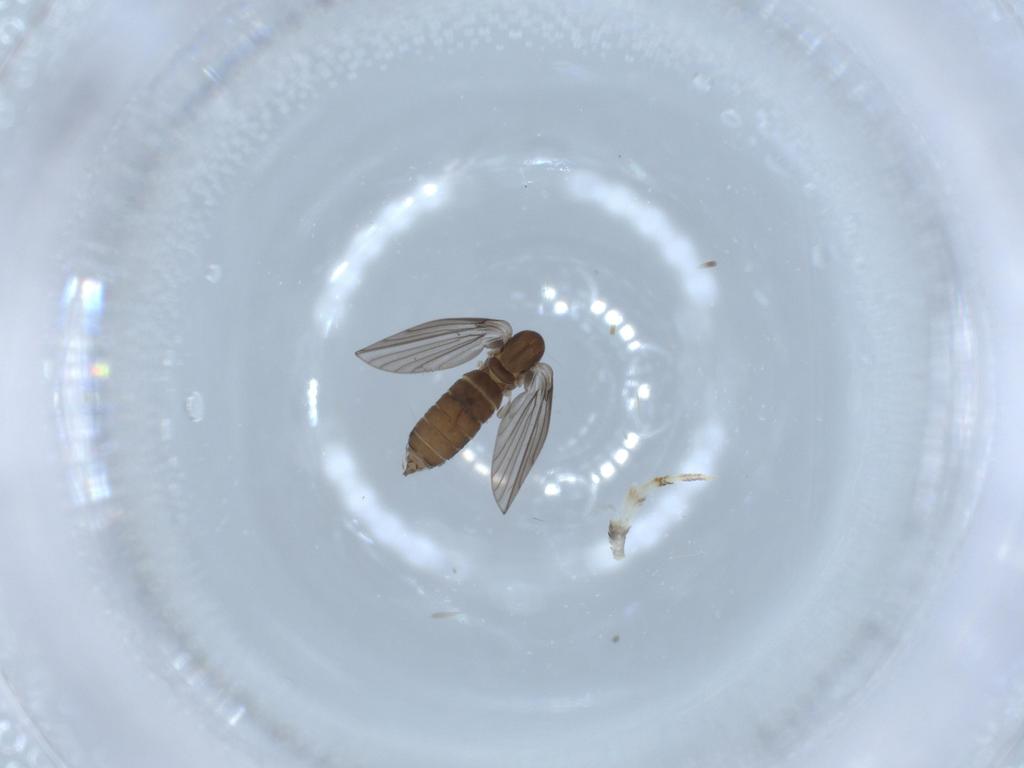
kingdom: Animalia
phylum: Arthropoda
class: Insecta
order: Diptera
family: Psychodidae
